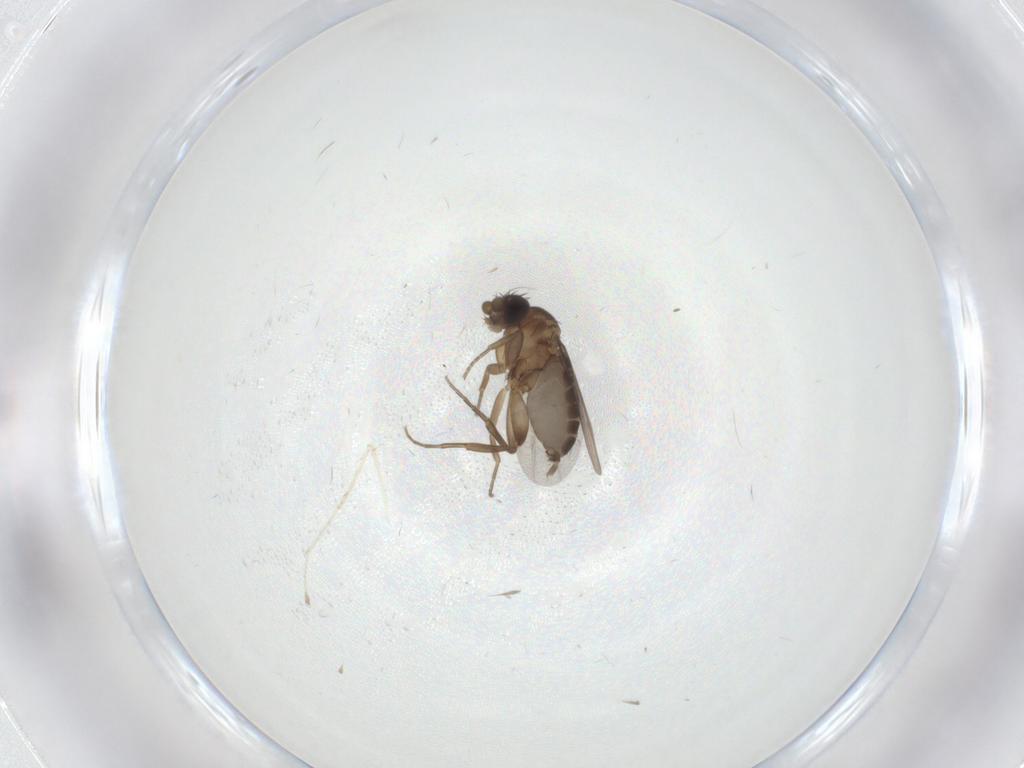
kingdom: Animalia
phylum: Arthropoda
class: Insecta
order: Diptera
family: Phoridae
